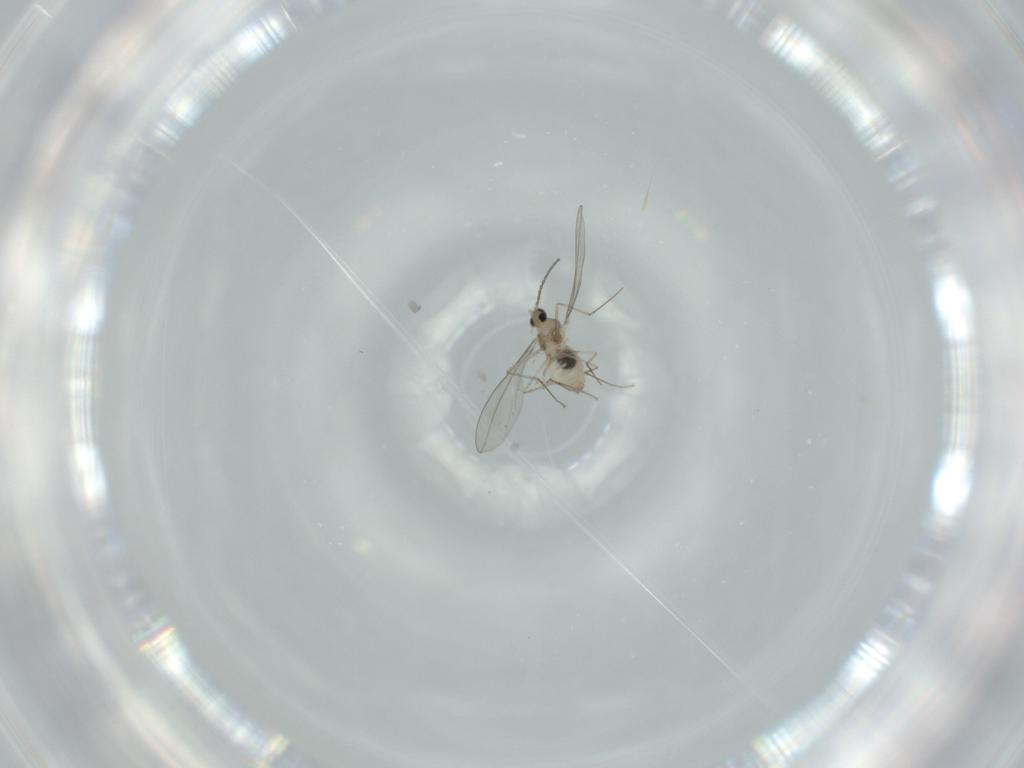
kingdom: Animalia
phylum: Arthropoda
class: Insecta
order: Diptera
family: Cecidomyiidae
